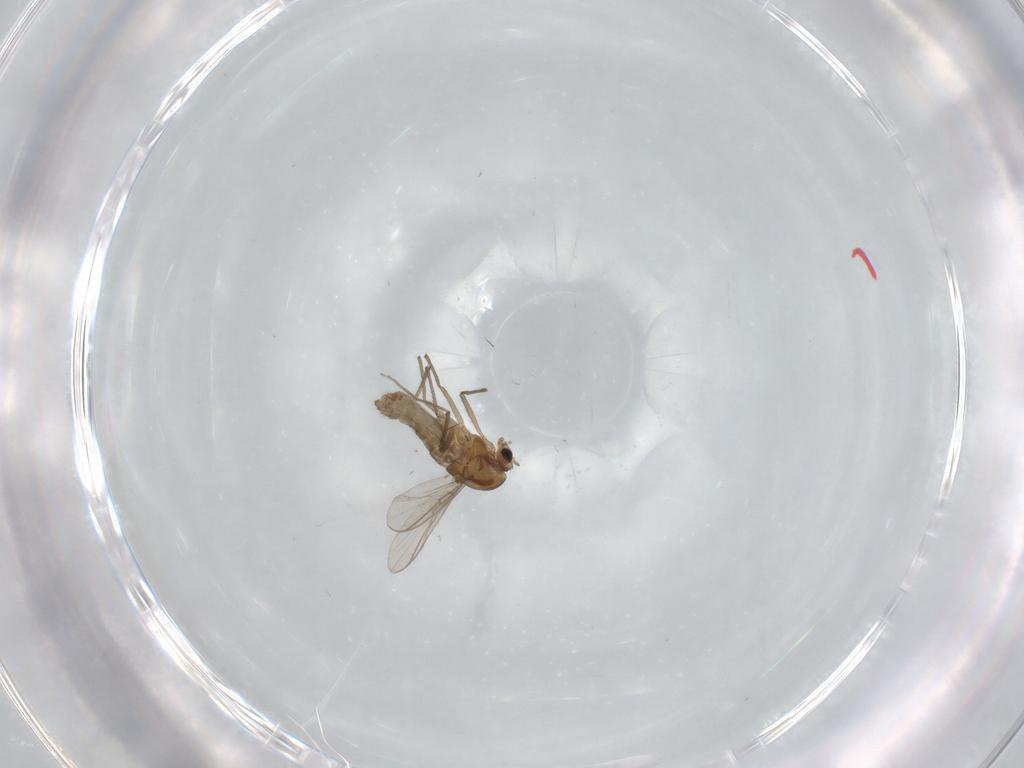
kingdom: Animalia
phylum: Arthropoda
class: Insecta
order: Diptera
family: Chironomidae
